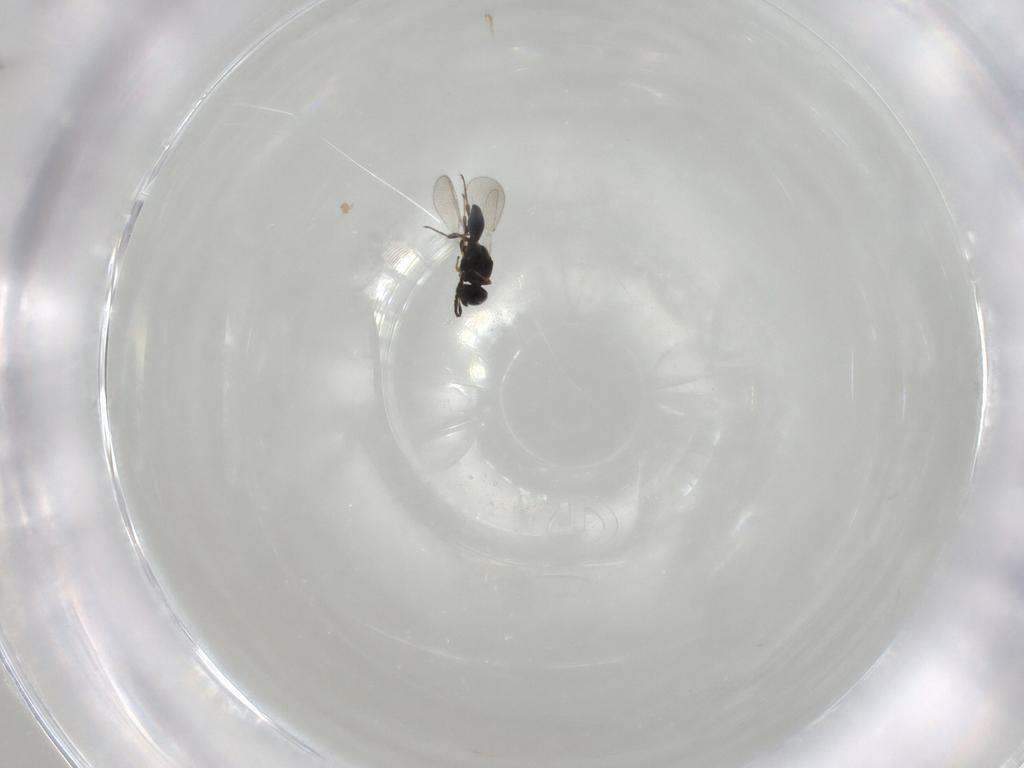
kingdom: Animalia
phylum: Arthropoda
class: Insecta
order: Hymenoptera
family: Platygastridae
